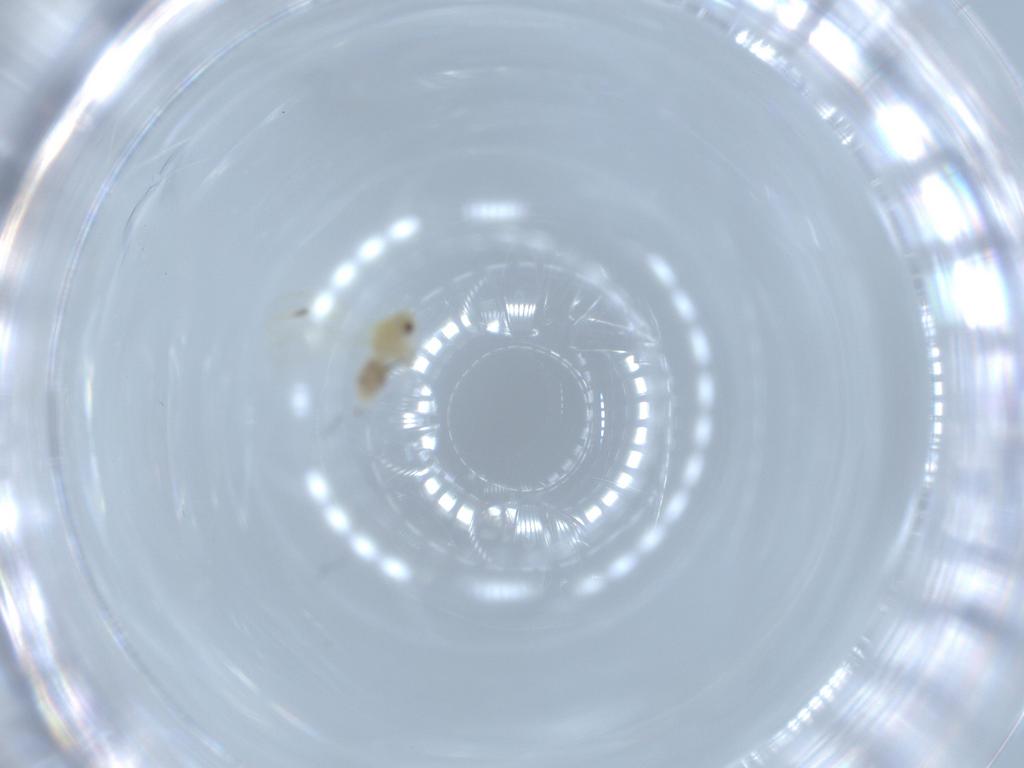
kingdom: Animalia
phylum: Arthropoda
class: Insecta
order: Hemiptera
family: Aleyrodidae
